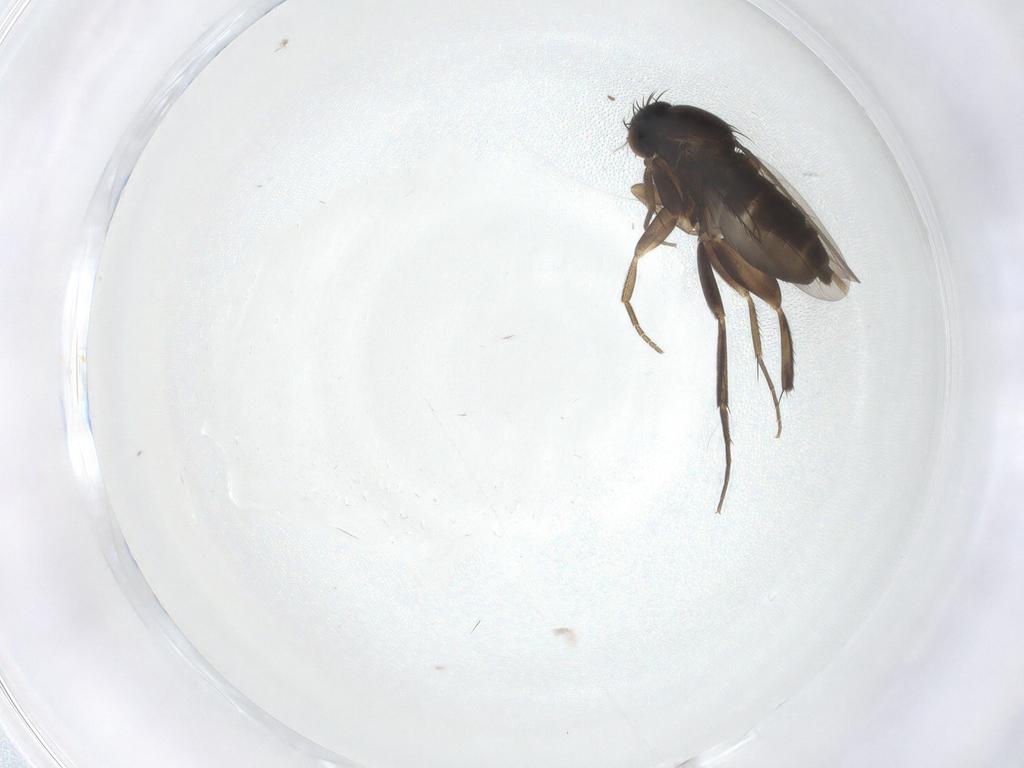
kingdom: Animalia
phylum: Arthropoda
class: Insecta
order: Diptera
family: Phoridae
